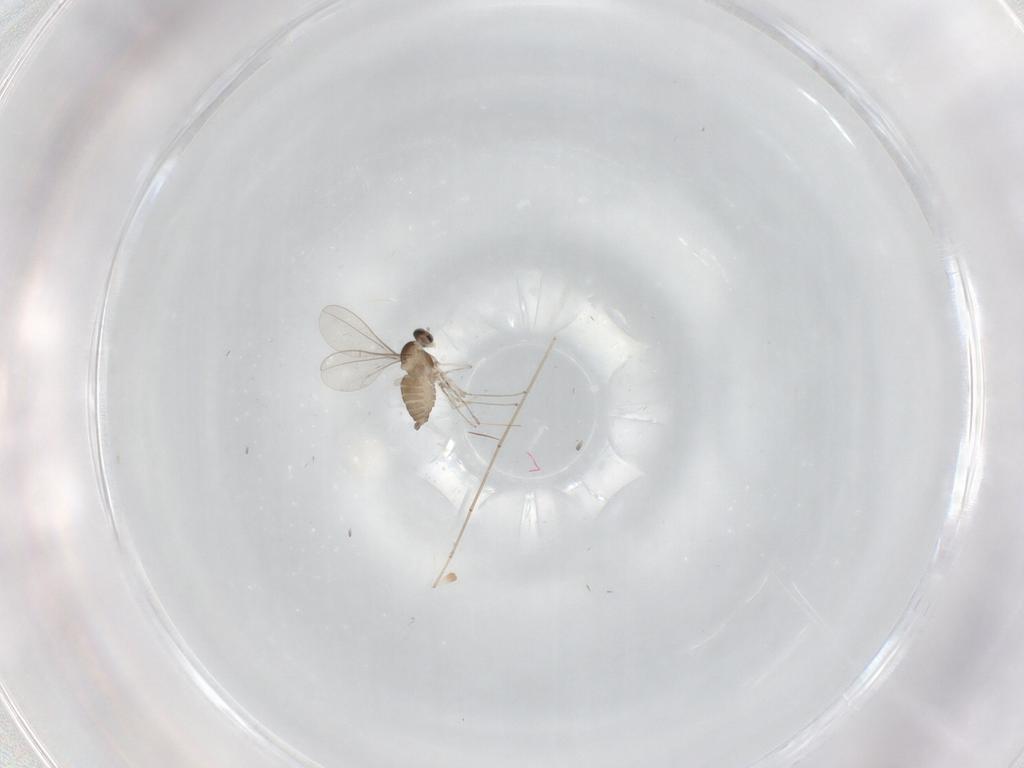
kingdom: Animalia
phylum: Arthropoda
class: Insecta
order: Diptera
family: Cecidomyiidae
